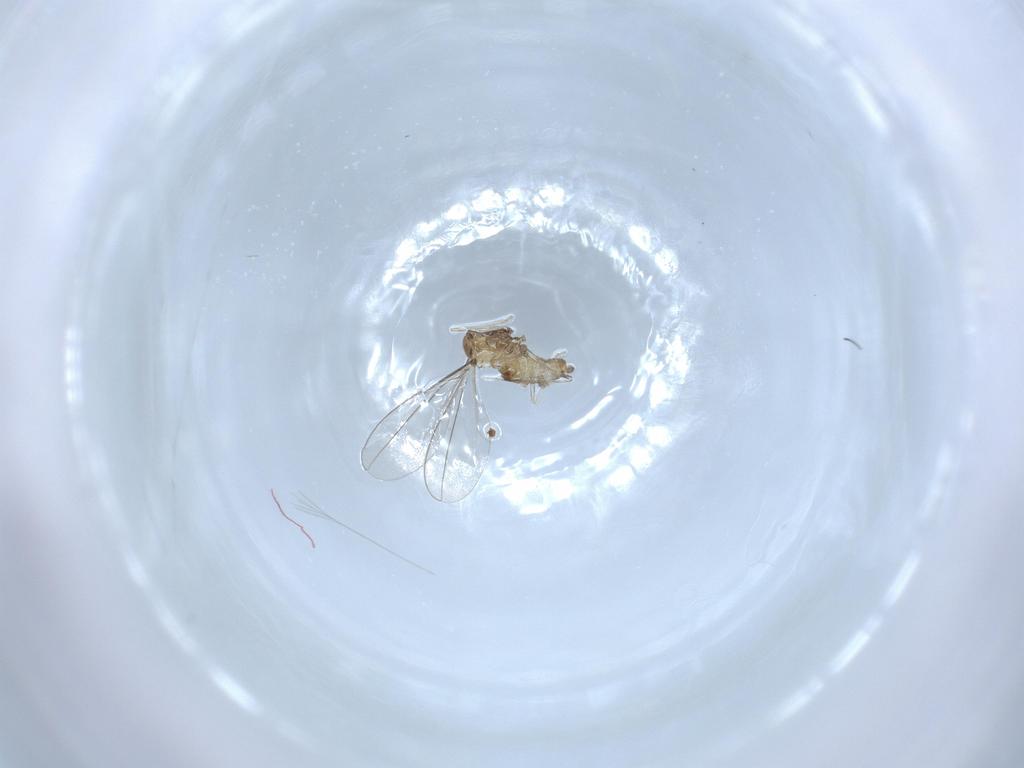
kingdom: Animalia
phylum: Arthropoda
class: Insecta
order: Diptera
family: Cecidomyiidae
